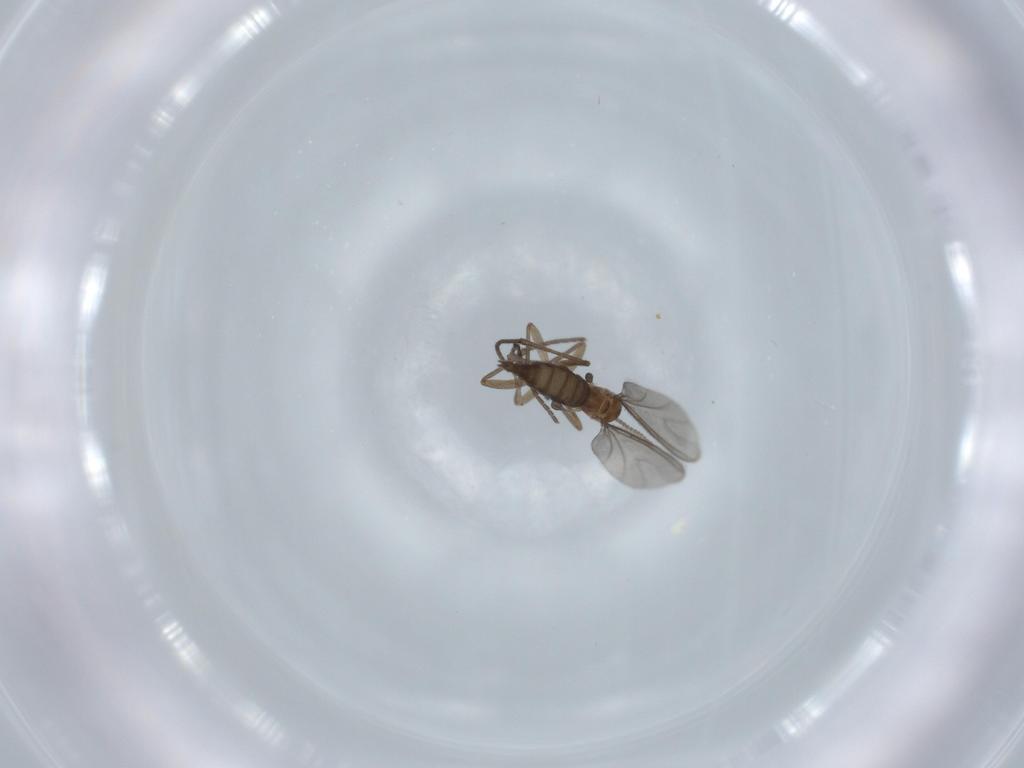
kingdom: Animalia
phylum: Arthropoda
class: Insecta
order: Diptera
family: Sciaridae
